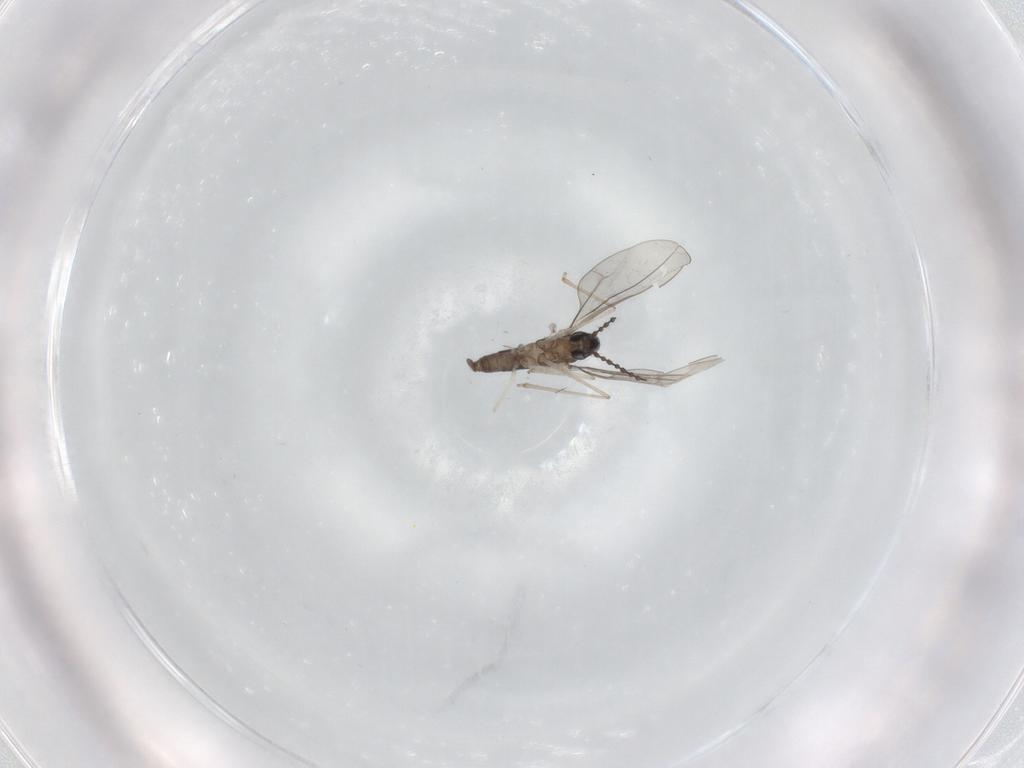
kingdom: Animalia
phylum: Arthropoda
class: Insecta
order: Diptera
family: Cecidomyiidae
